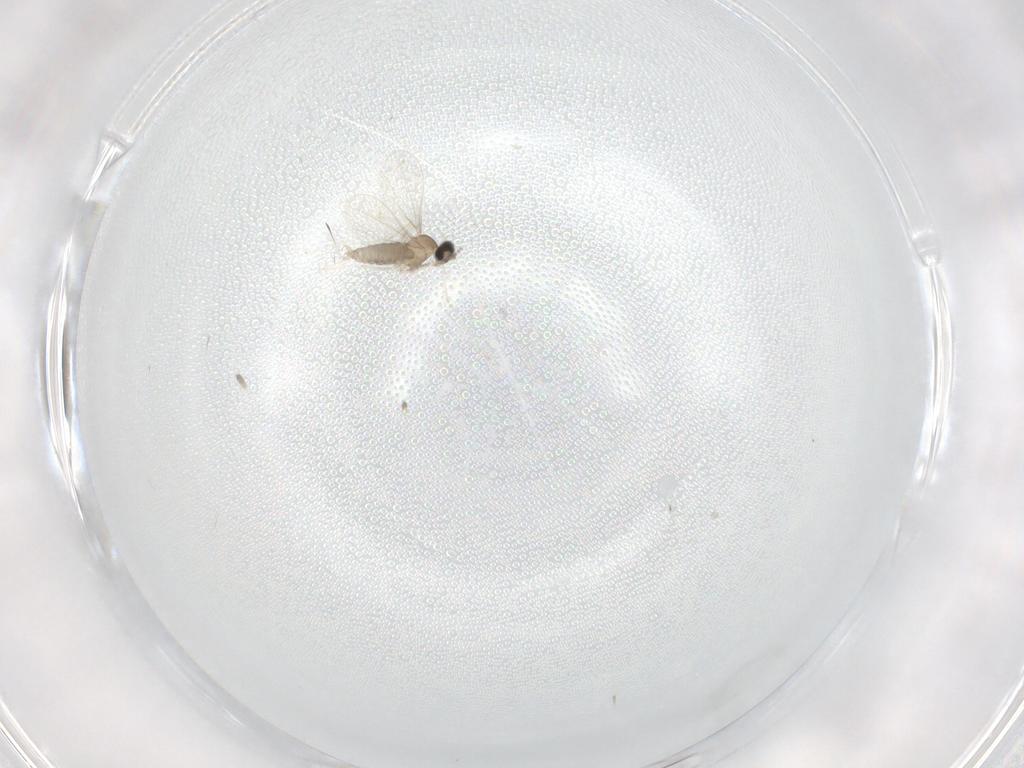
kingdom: Animalia
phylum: Arthropoda
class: Insecta
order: Diptera
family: Cecidomyiidae
